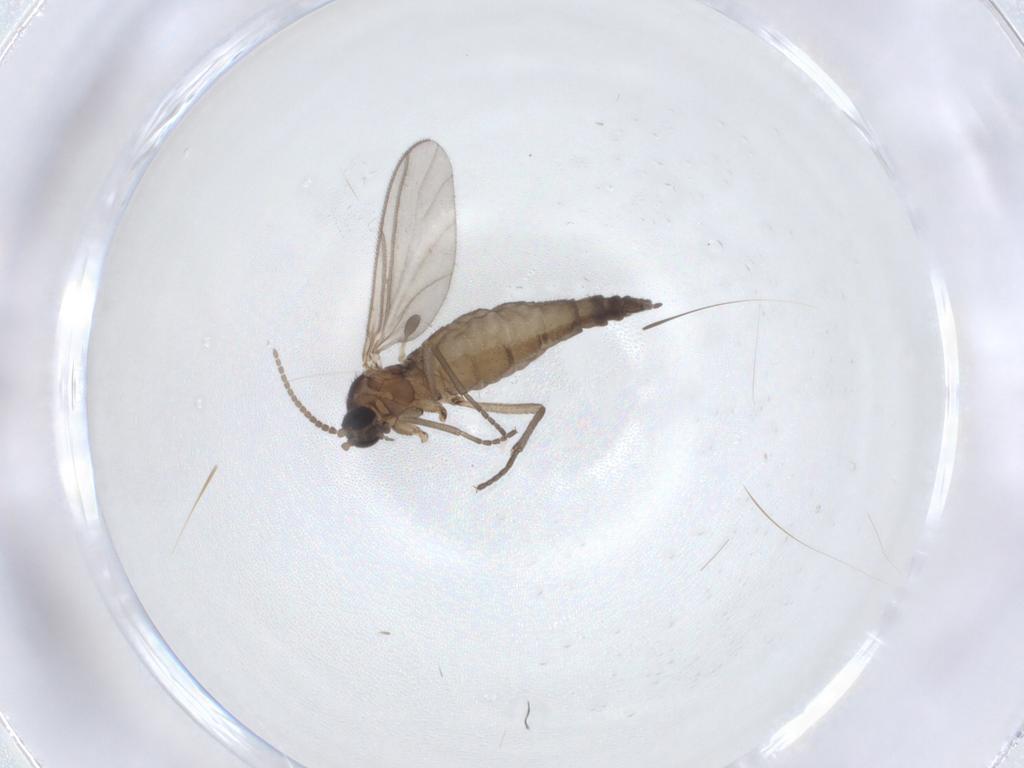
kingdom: Animalia
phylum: Arthropoda
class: Insecta
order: Diptera
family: Sciaridae
